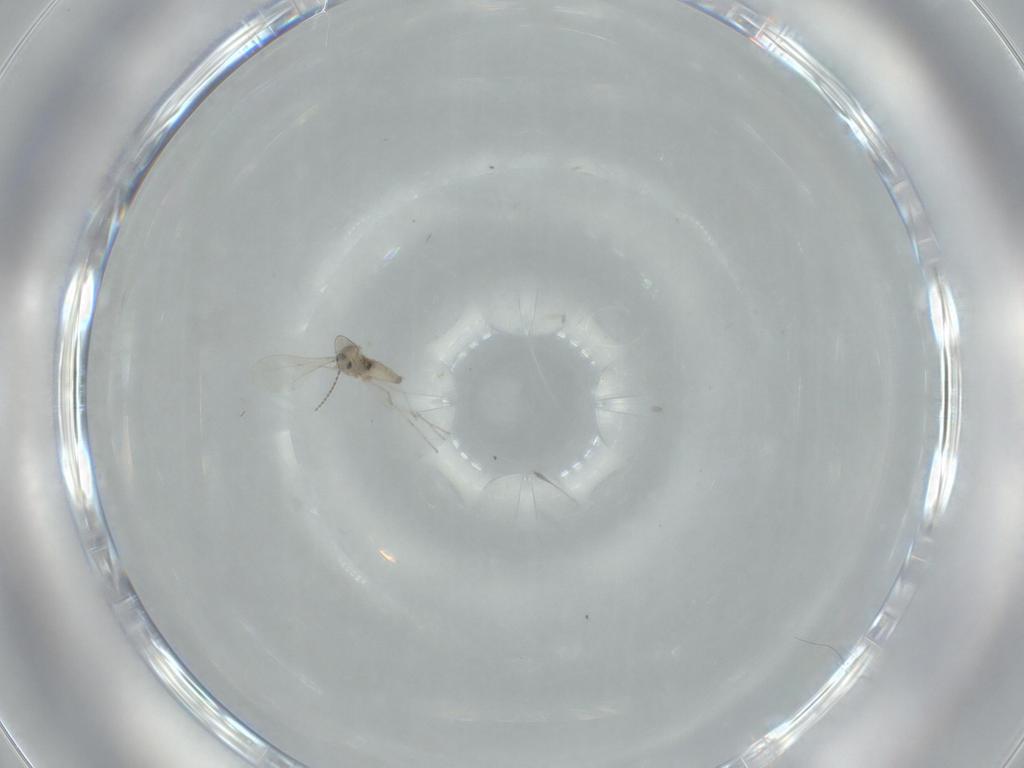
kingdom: Animalia
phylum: Arthropoda
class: Insecta
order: Diptera
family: Cecidomyiidae
